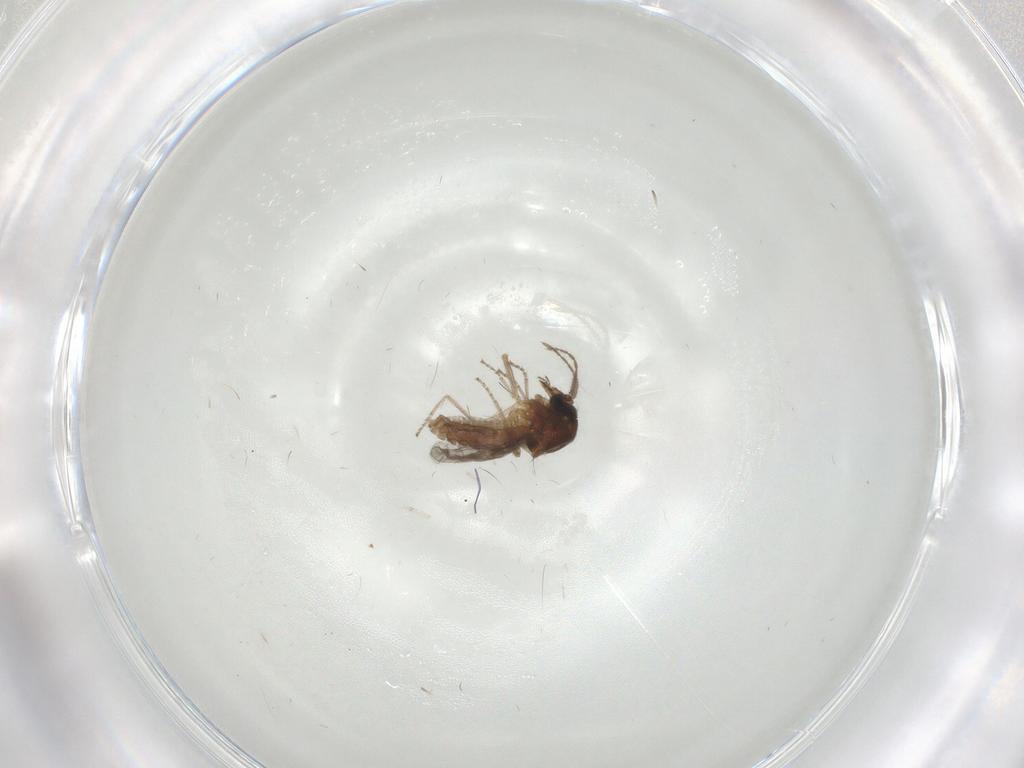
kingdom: Animalia
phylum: Arthropoda
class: Insecta
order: Diptera
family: Ceratopogonidae
